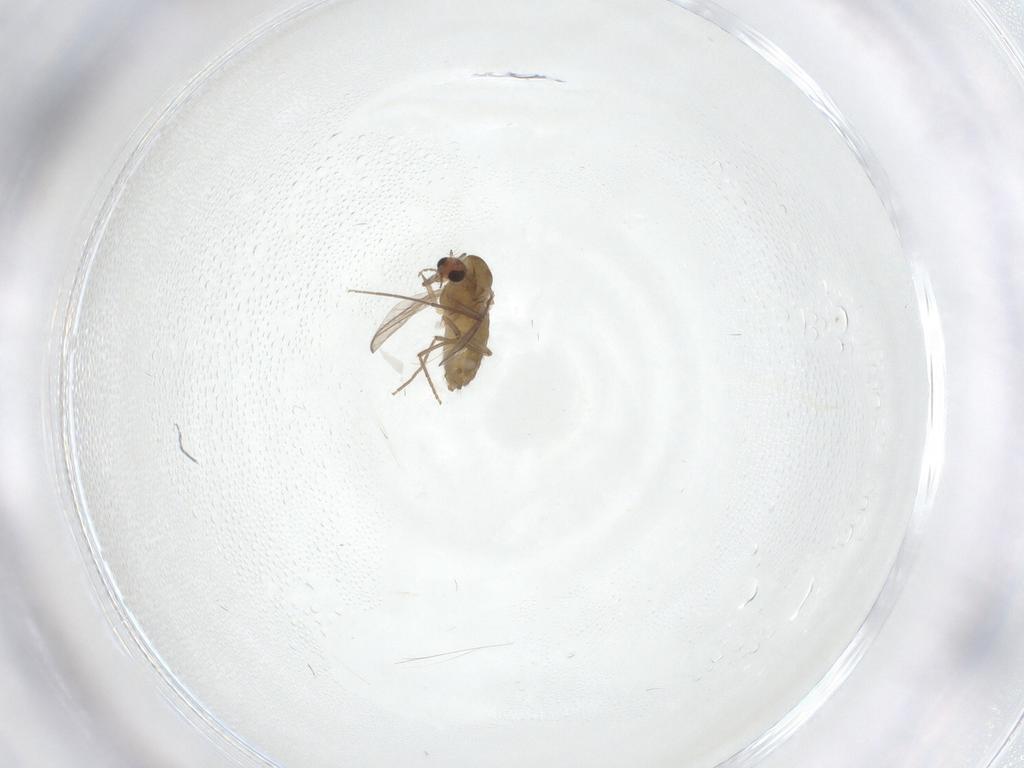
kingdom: Animalia
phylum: Arthropoda
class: Insecta
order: Diptera
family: Chironomidae
